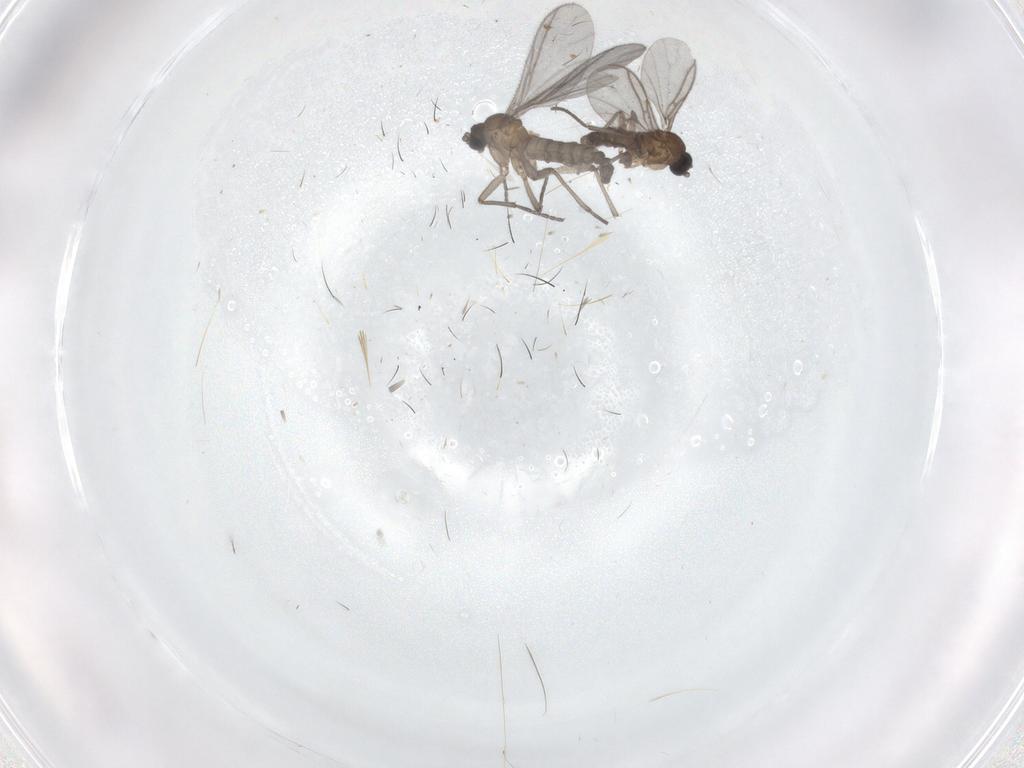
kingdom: Animalia
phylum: Arthropoda
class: Insecta
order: Diptera
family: Sciaridae
